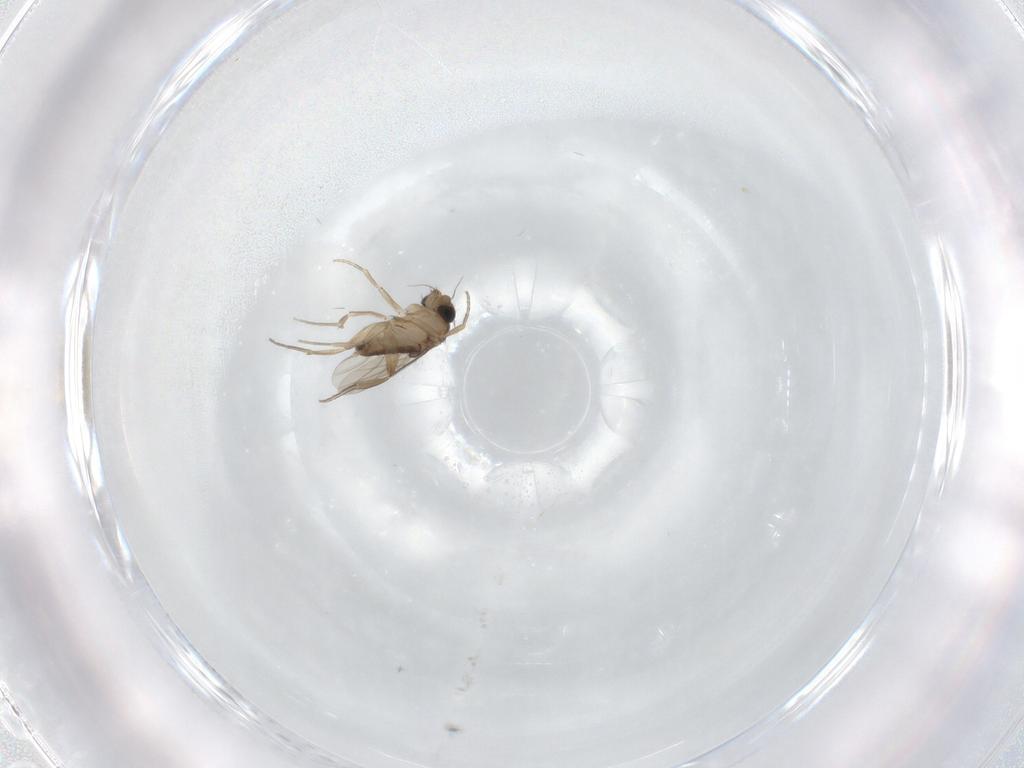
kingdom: Animalia
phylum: Arthropoda
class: Insecta
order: Diptera
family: Phoridae
